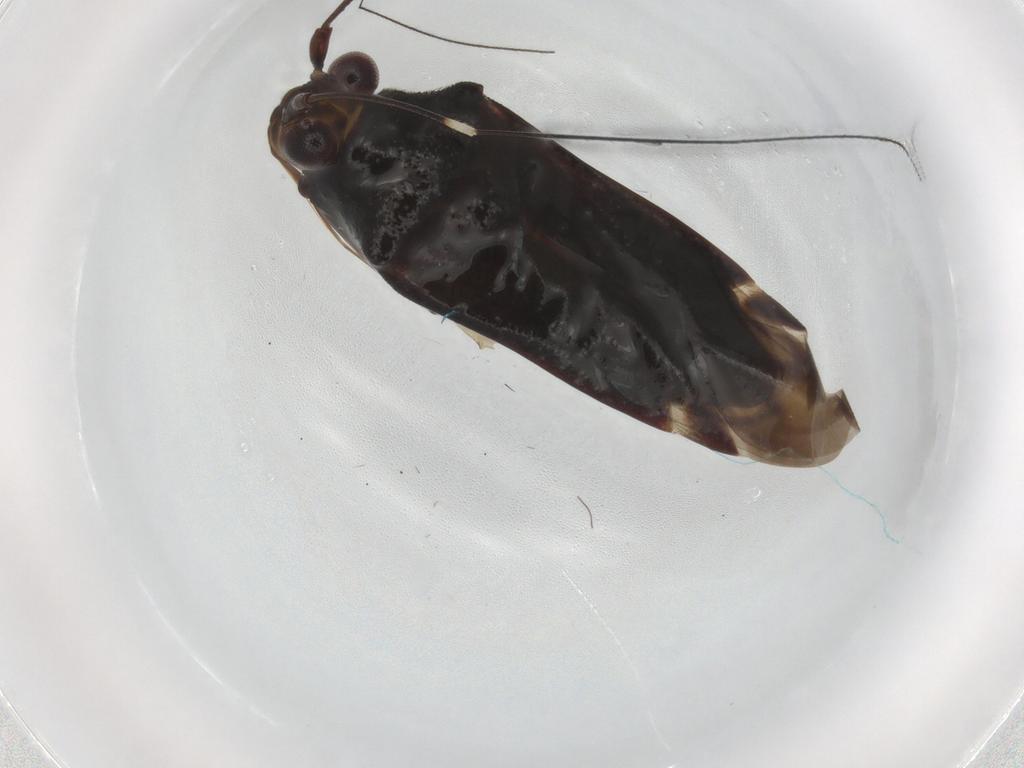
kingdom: Animalia
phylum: Arthropoda
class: Insecta
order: Hemiptera
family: Miridae
